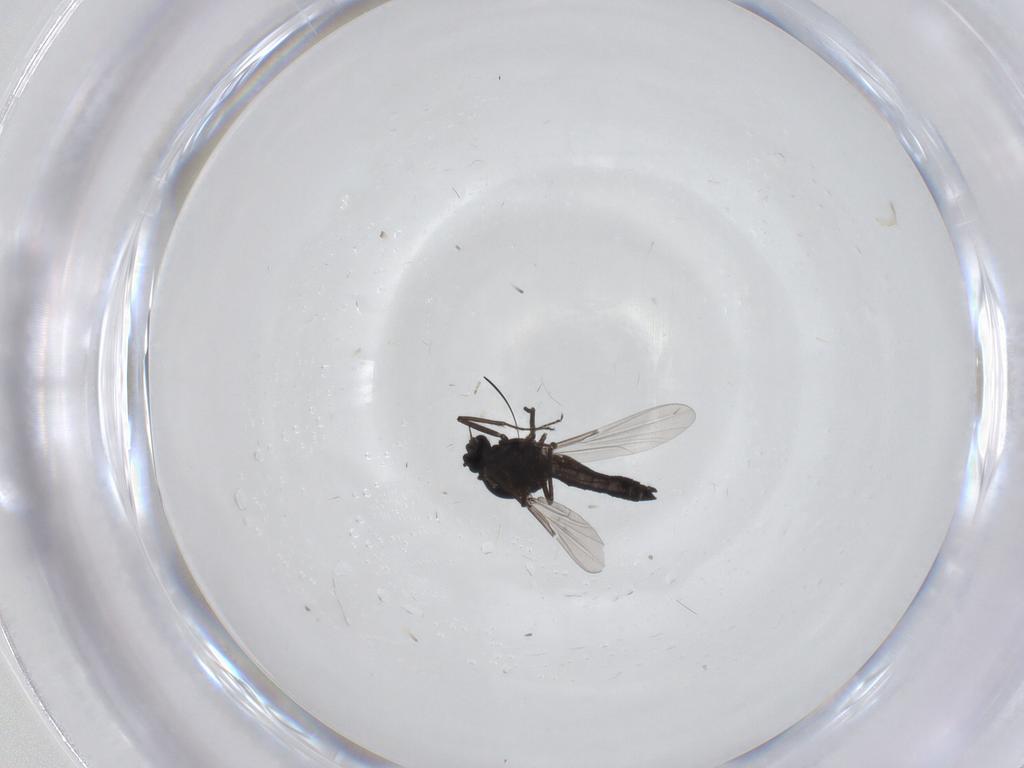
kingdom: Animalia
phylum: Arthropoda
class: Insecta
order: Diptera
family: Ceratopogonidae
